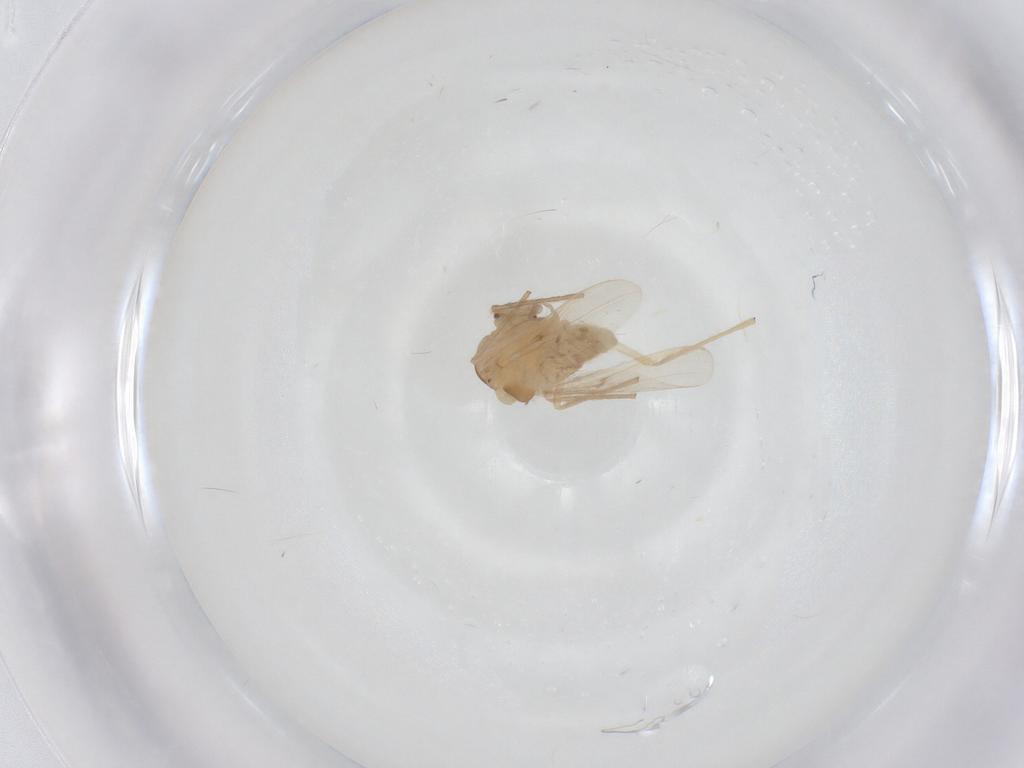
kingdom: Animalia
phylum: Arthropoda
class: Insecta
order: Diptera
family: Chironomidae
